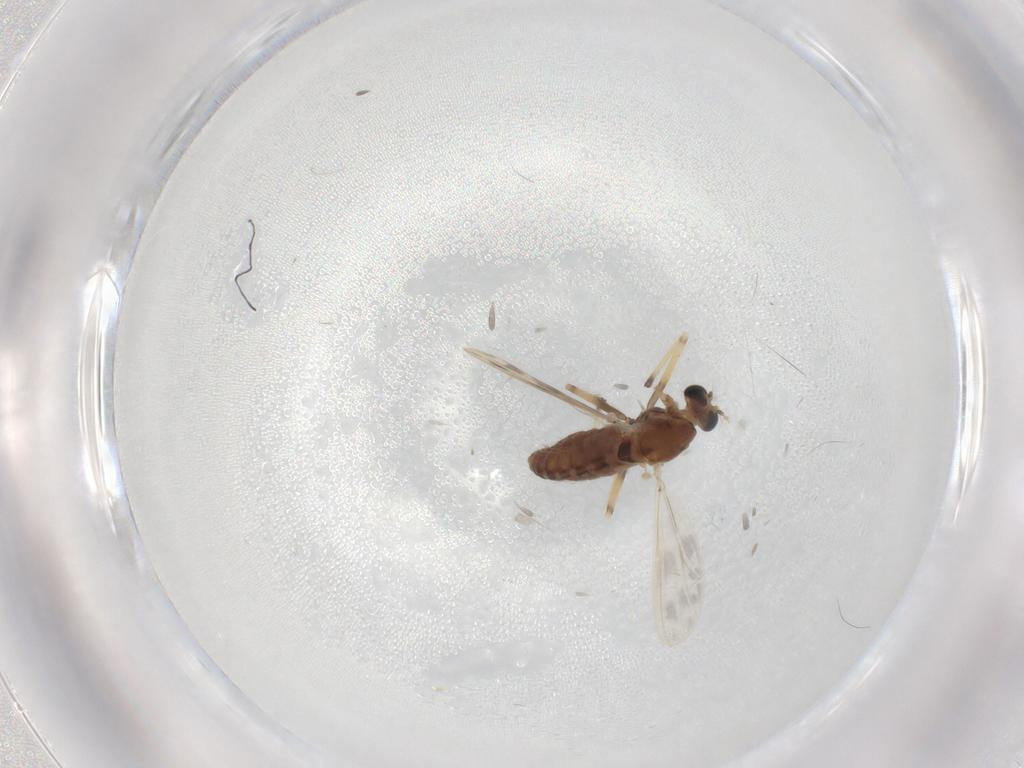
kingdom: Animalia
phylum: Arthropoda
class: Insecta
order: Diptera
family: Chironomidae
